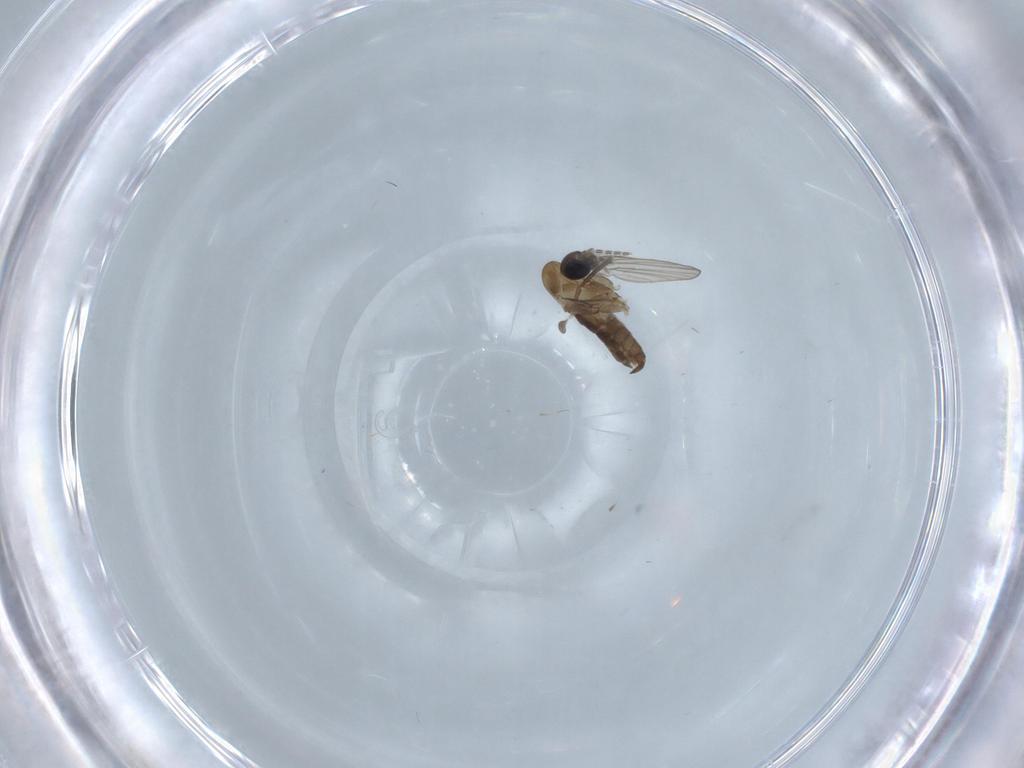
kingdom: Animalia
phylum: Arthropoda
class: Insecta
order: Diptera
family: Psychodidae
